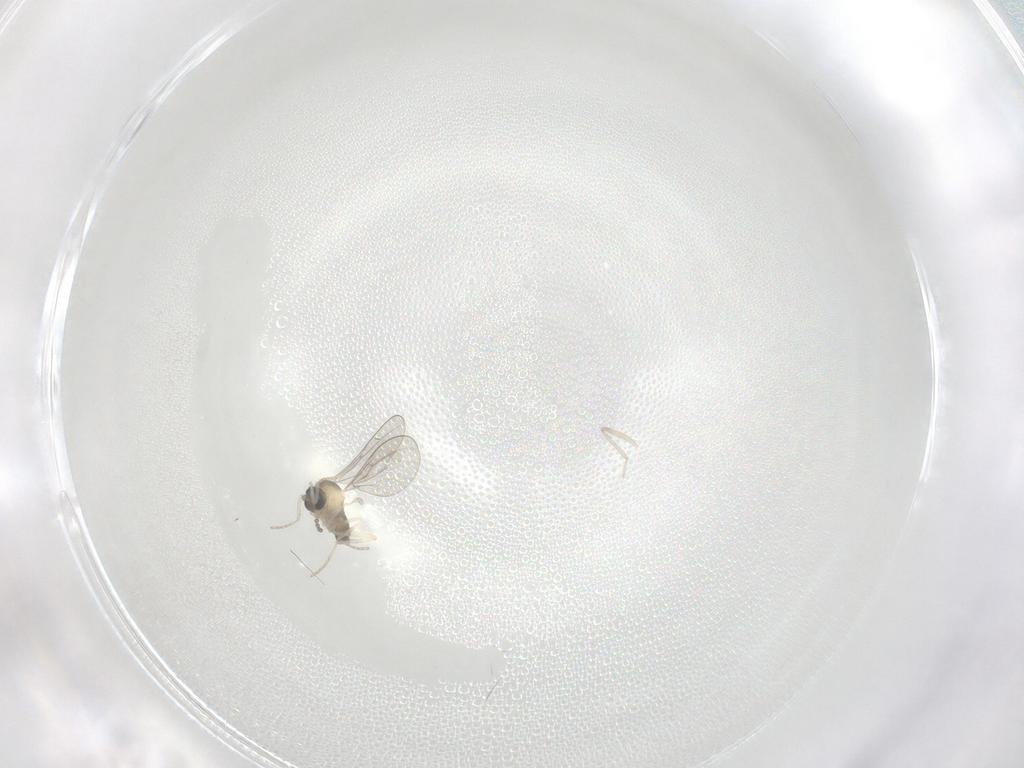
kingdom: Animalia
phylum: Arthropoda
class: Insecta
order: Diptera
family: Cecidomyiidae
